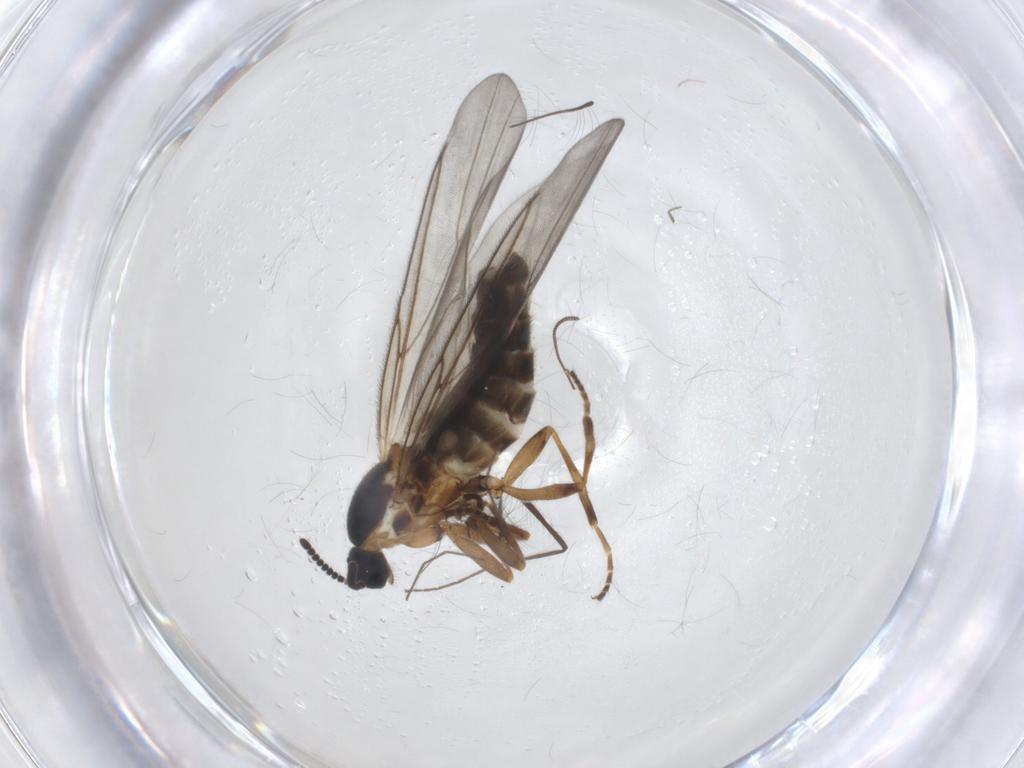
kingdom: Animalia
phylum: Arthropoda
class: Insecta
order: Diptera
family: Scatopsidae
